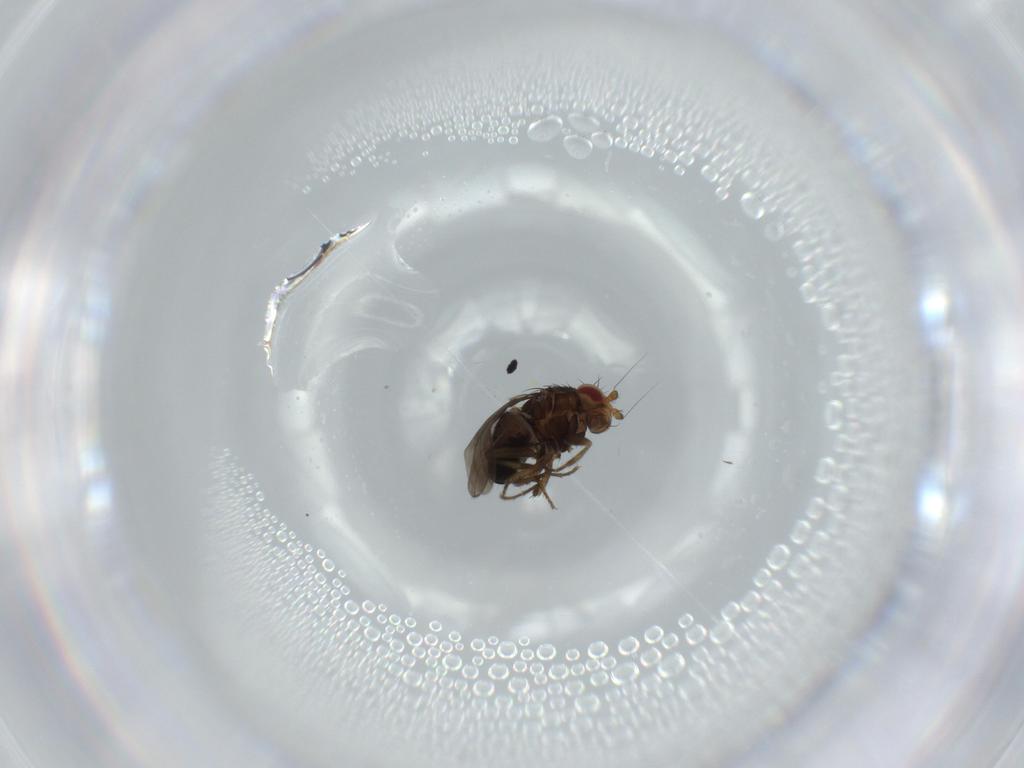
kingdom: Animalia
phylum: Arthropoda
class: Insecta
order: Diptera
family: Sphaeroceridae
